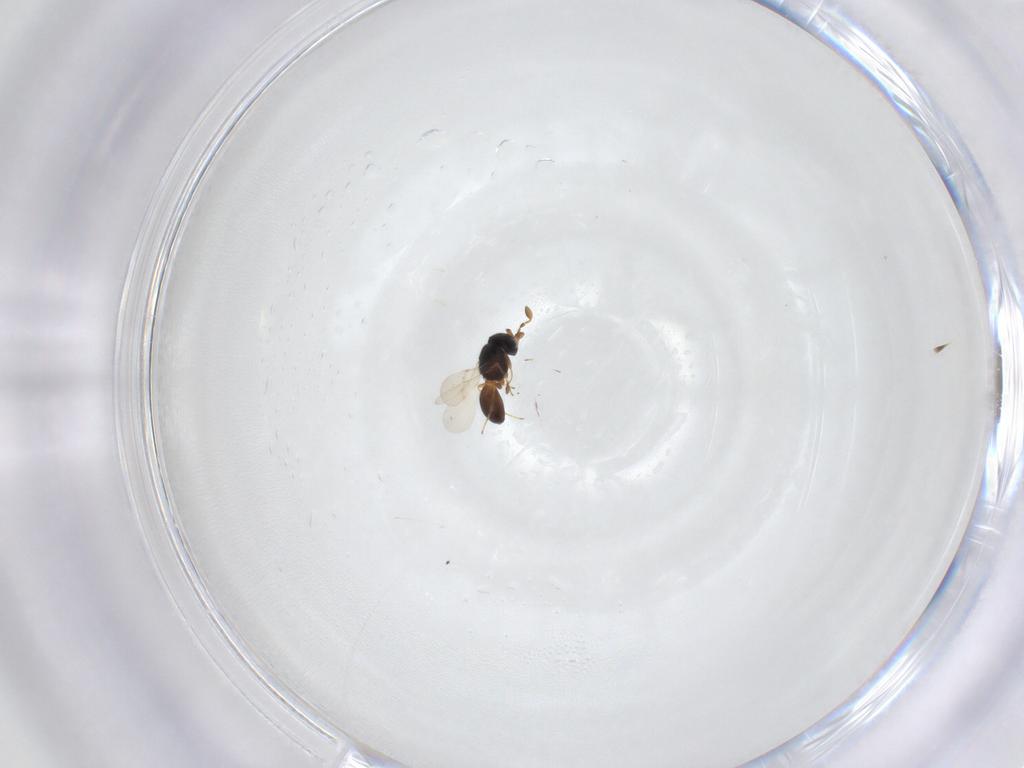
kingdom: Animalia
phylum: Arthropoda
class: Insecta
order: Hymenoptera
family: Scelionidae
